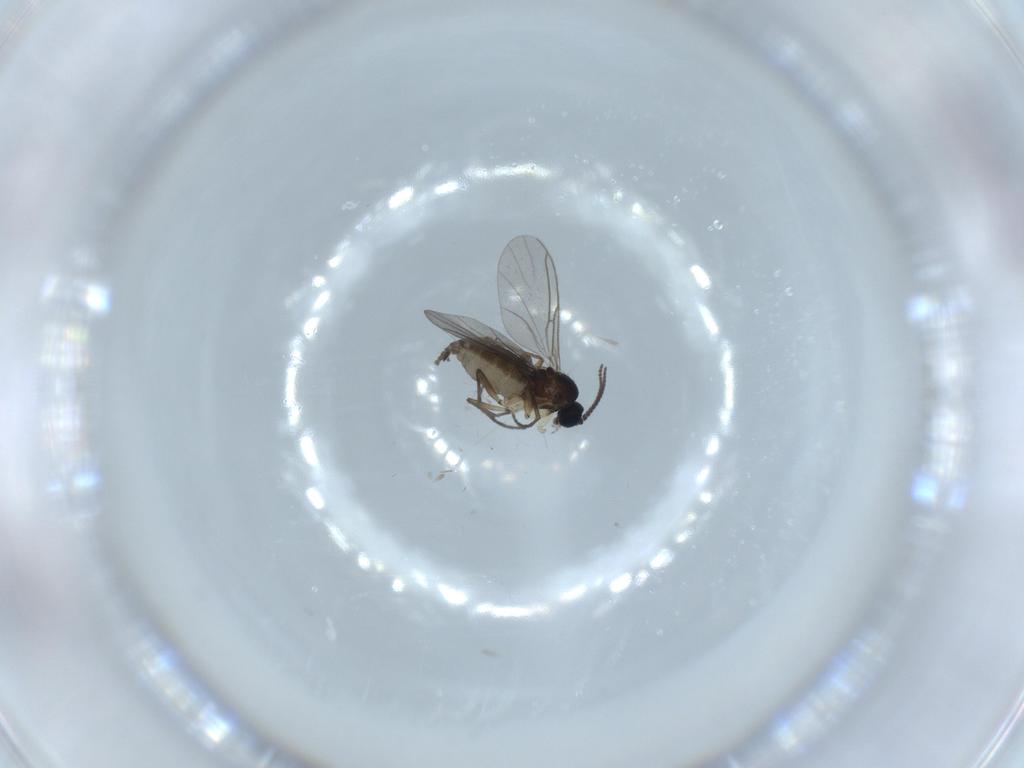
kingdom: Animalia
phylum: Arthropoda
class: Insecta
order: Diptera
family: Sciaridae
